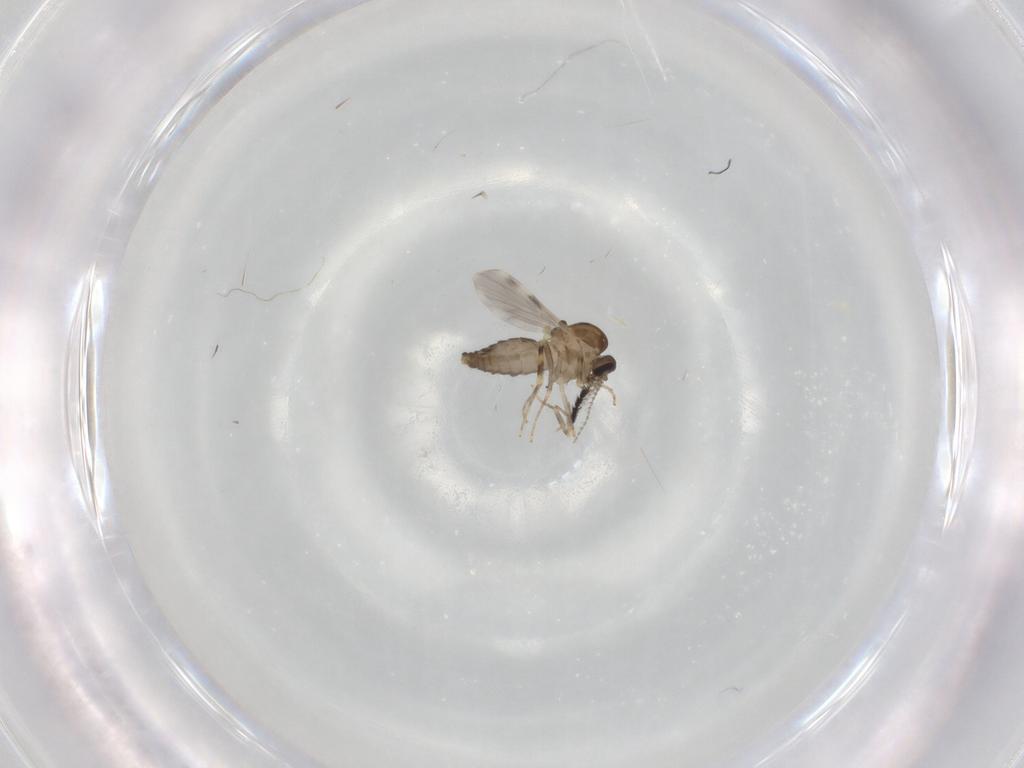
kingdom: Animalia
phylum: Arthropoda
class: Insecta
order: Diptera
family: Ceratopogonidae
